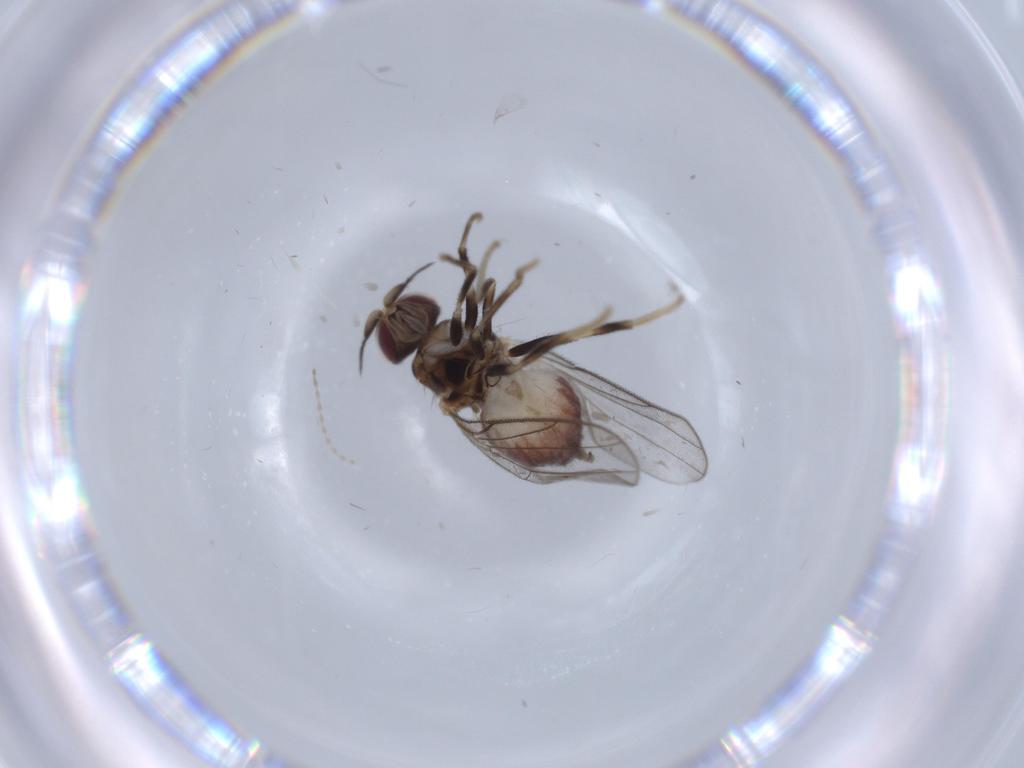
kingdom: Animalia
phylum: Arthropoda
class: Insecta
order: Diptera
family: Chloropidae
